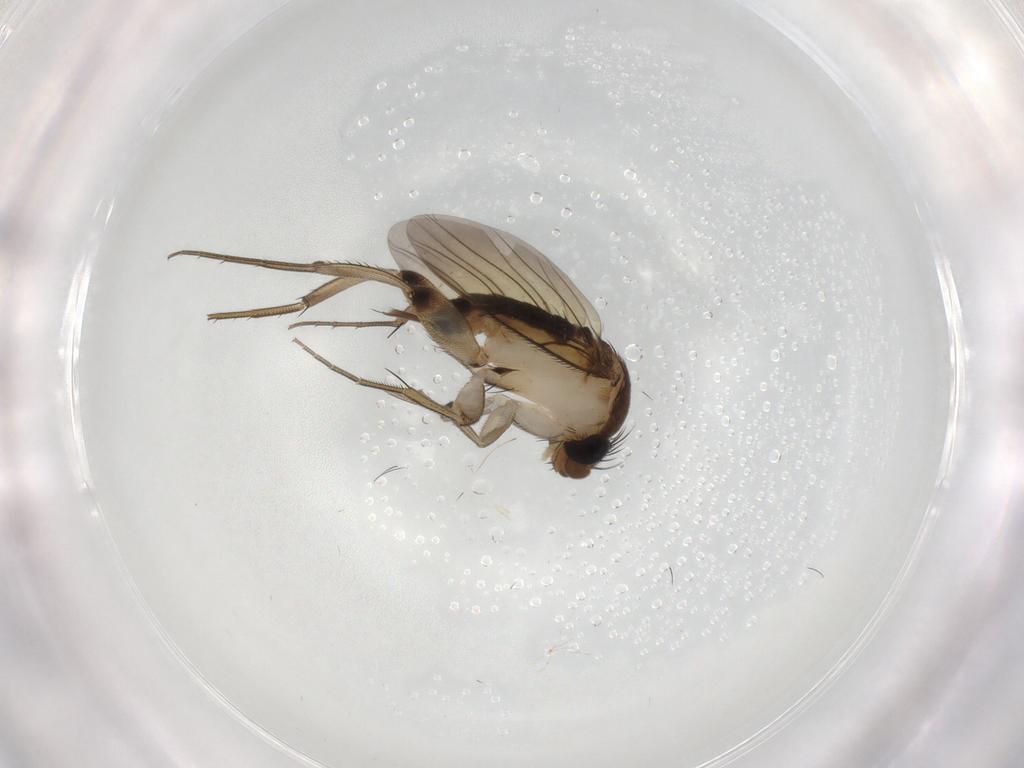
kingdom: Animalia
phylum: Arthropoda
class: Insecta
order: Diptera
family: Phoridae
